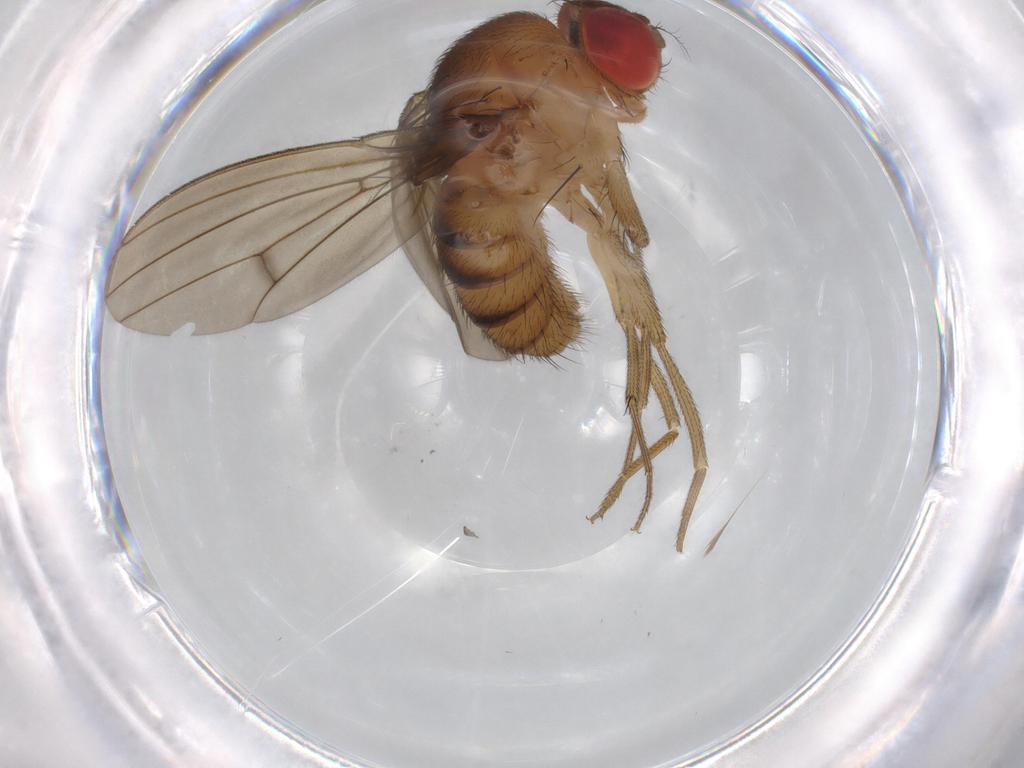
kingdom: Animalia
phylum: Arthropoda
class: Insecta
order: Diptera
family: Drosophilidae
